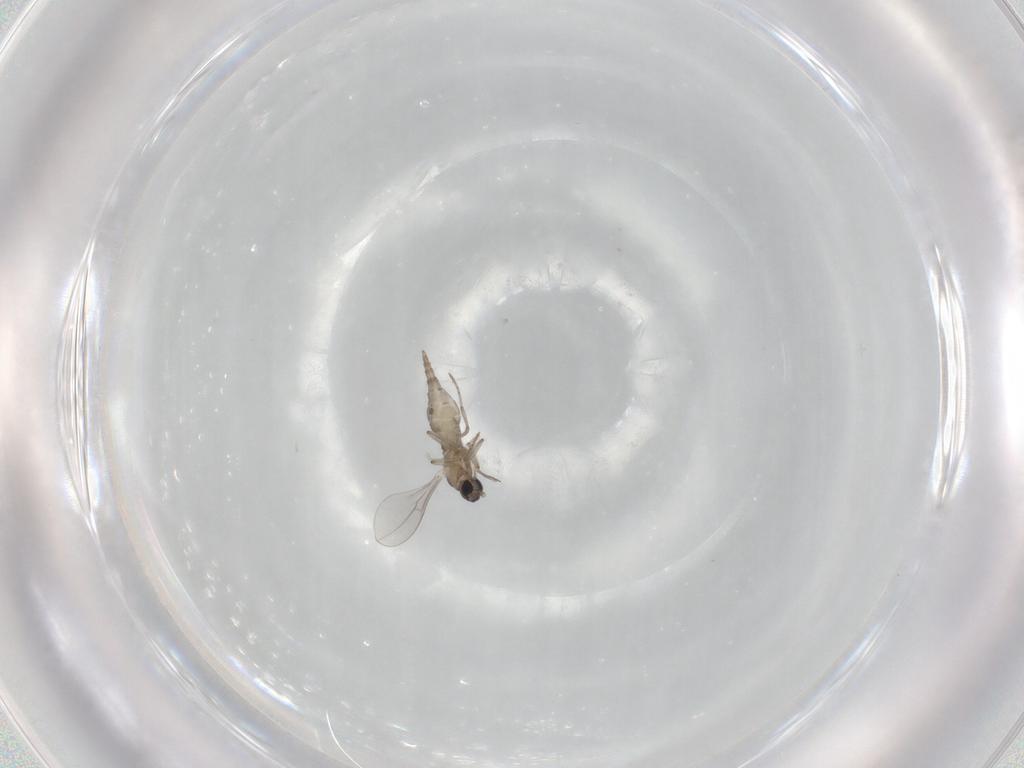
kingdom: Animalia
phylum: Arthropoda
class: Insecta
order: Diptera
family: Cecidomyiidae
